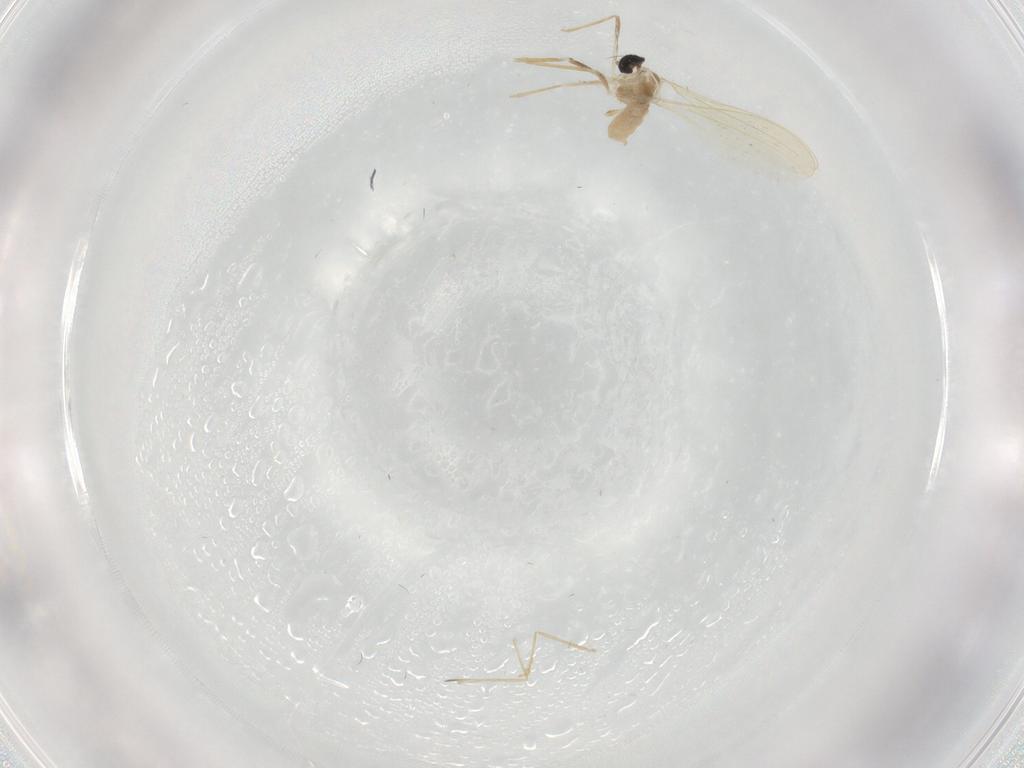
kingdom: Animalia
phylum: Arthropoda
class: Insecta
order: Diptera
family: Cecidomyiidae
